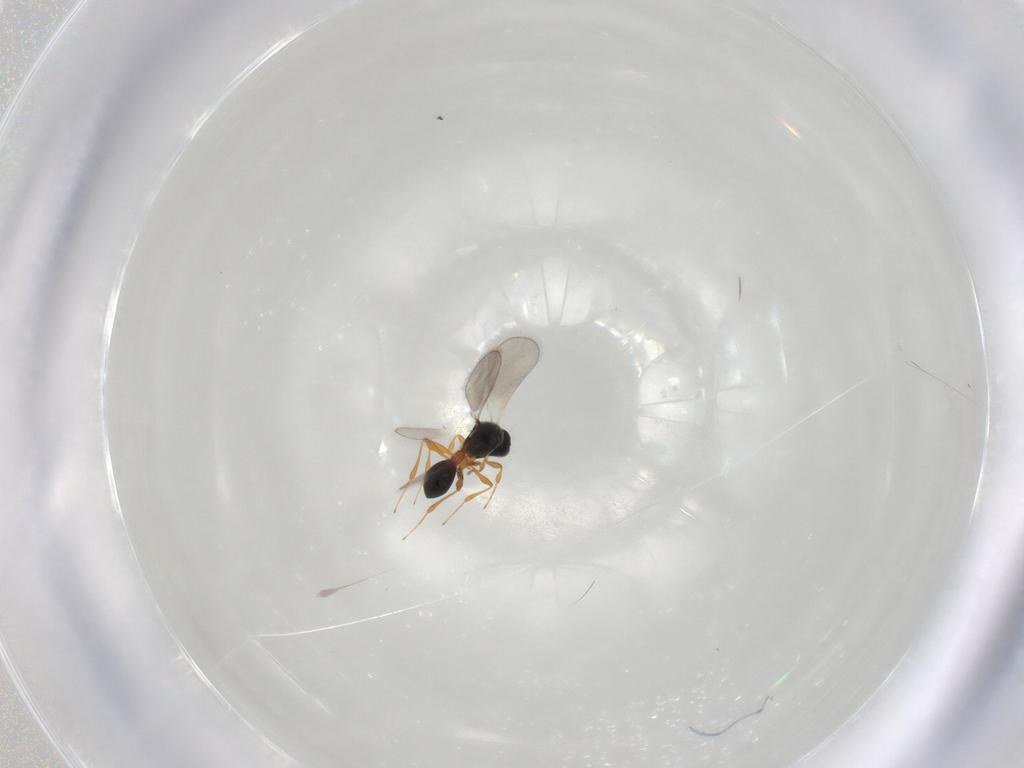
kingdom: Animalia
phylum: Arthropoda
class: Insecta
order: Hymenoptera
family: Platygastridae
